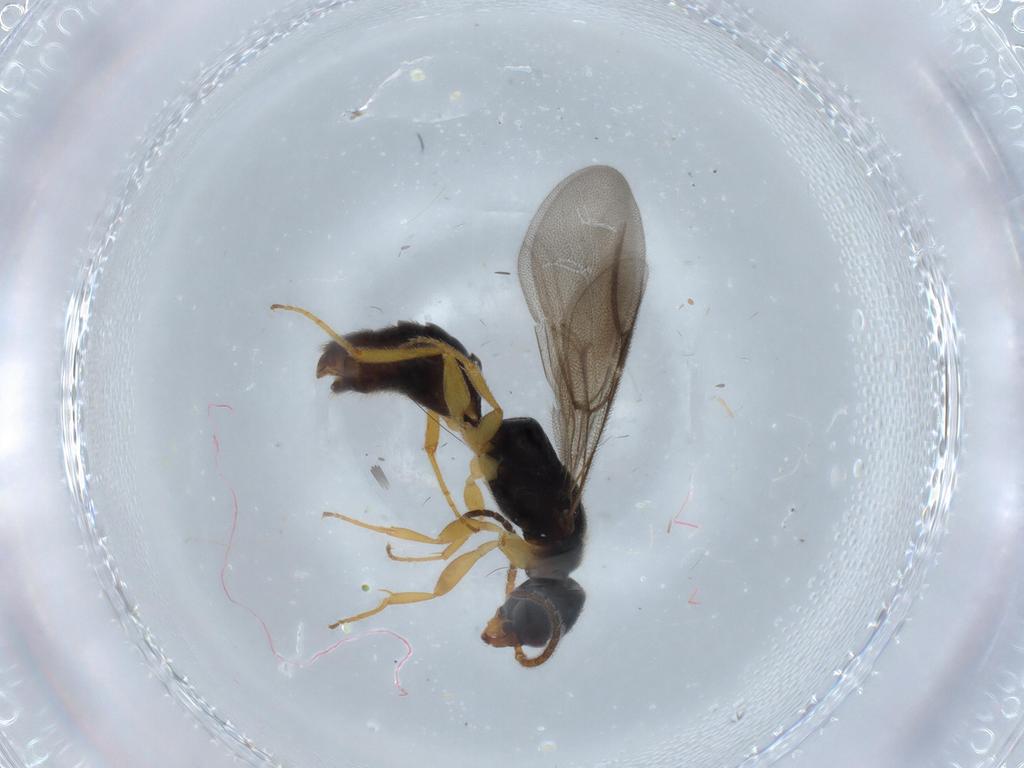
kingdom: Animalia
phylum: Arthropoda
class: Insecta
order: Hymenoptera
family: Bethylidae
